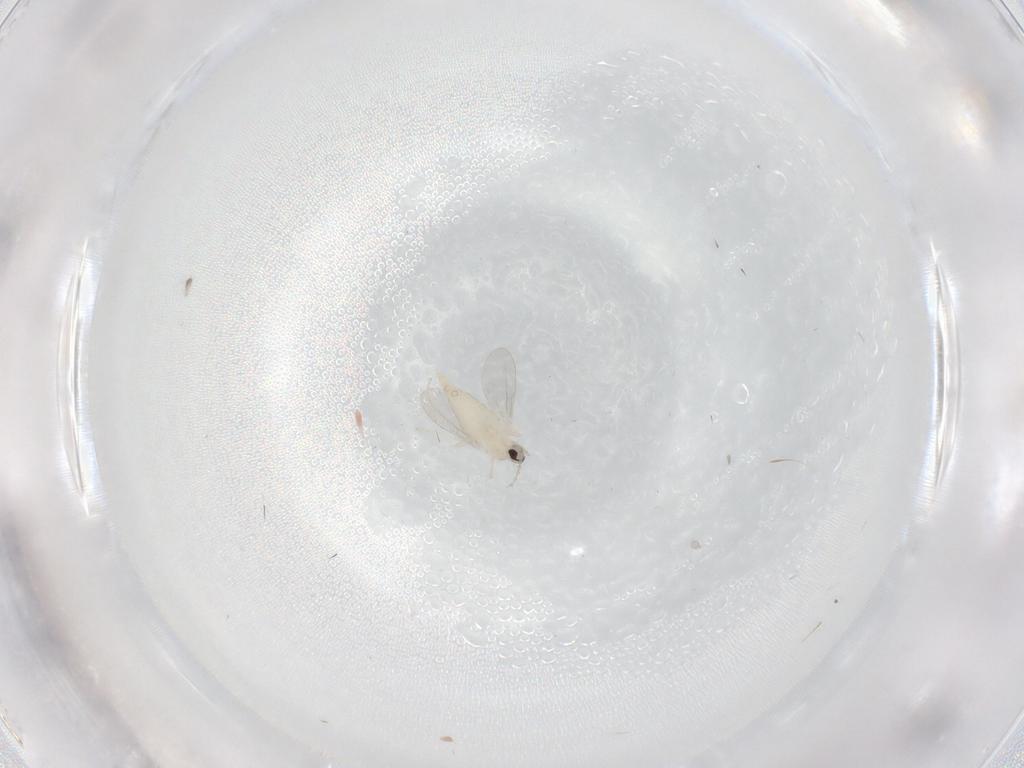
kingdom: Animalia
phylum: Arthropoda
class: Insecta
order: Diptera
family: Cecidomyiidae
